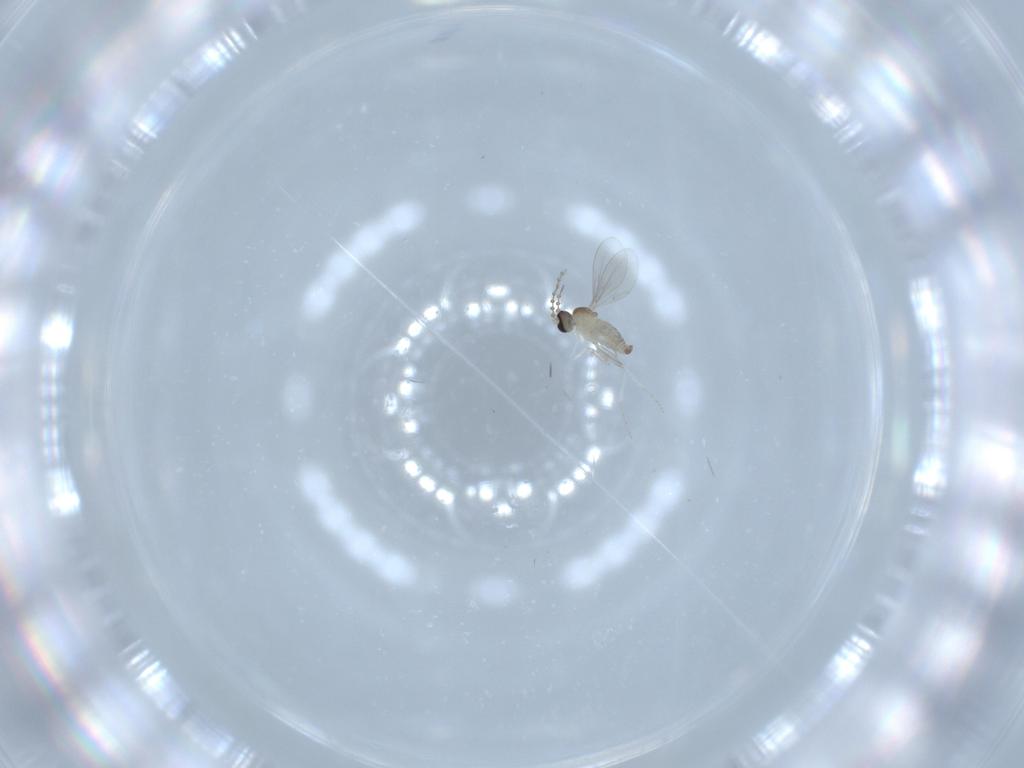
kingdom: Animalia
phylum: Arthropoda
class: Insecta
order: Diptera
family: Cecidomyiidae
